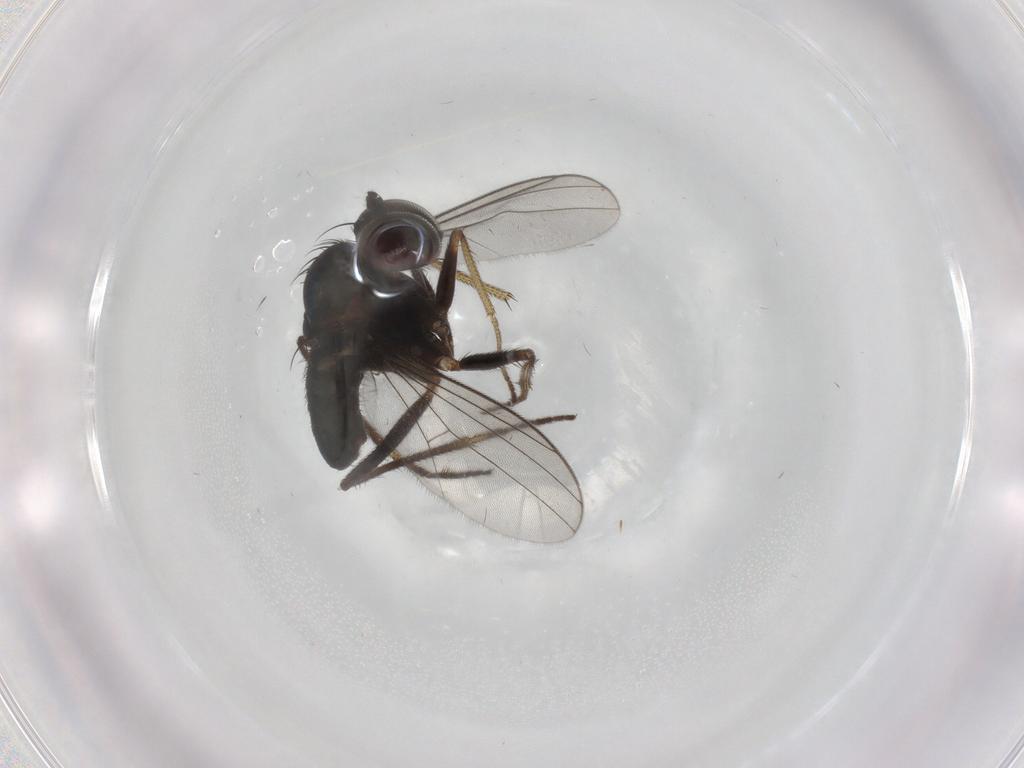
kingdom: Animalia
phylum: Arthropoda
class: Insecta
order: Diptera
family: Dolichopodidae
